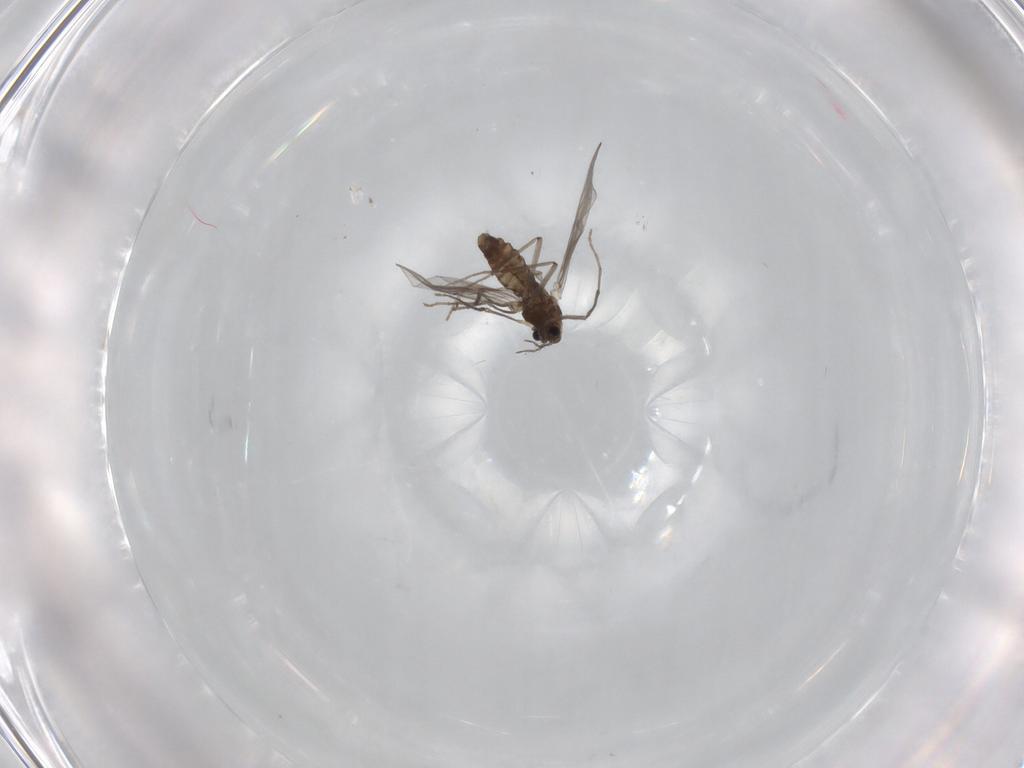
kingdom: Animalia
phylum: Arthropoda
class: Insecta
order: Diptera
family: Chironomidae
